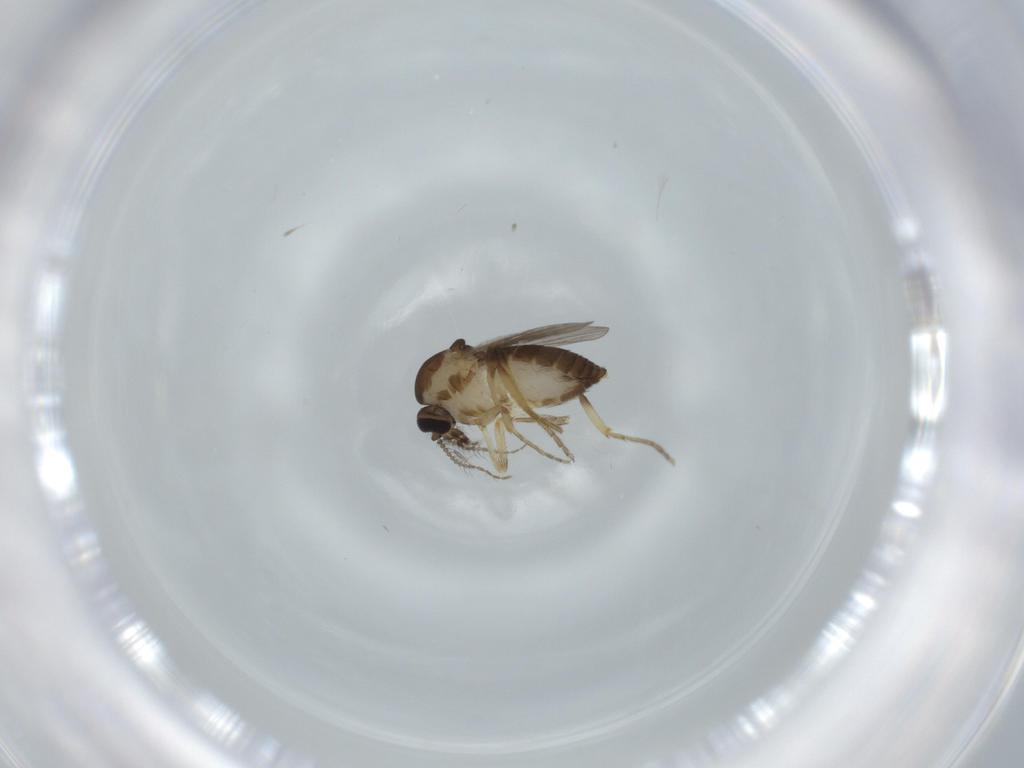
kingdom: Animalia
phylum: Arthropoda
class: Insecta
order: Diptera
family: Ceratopogonidae
